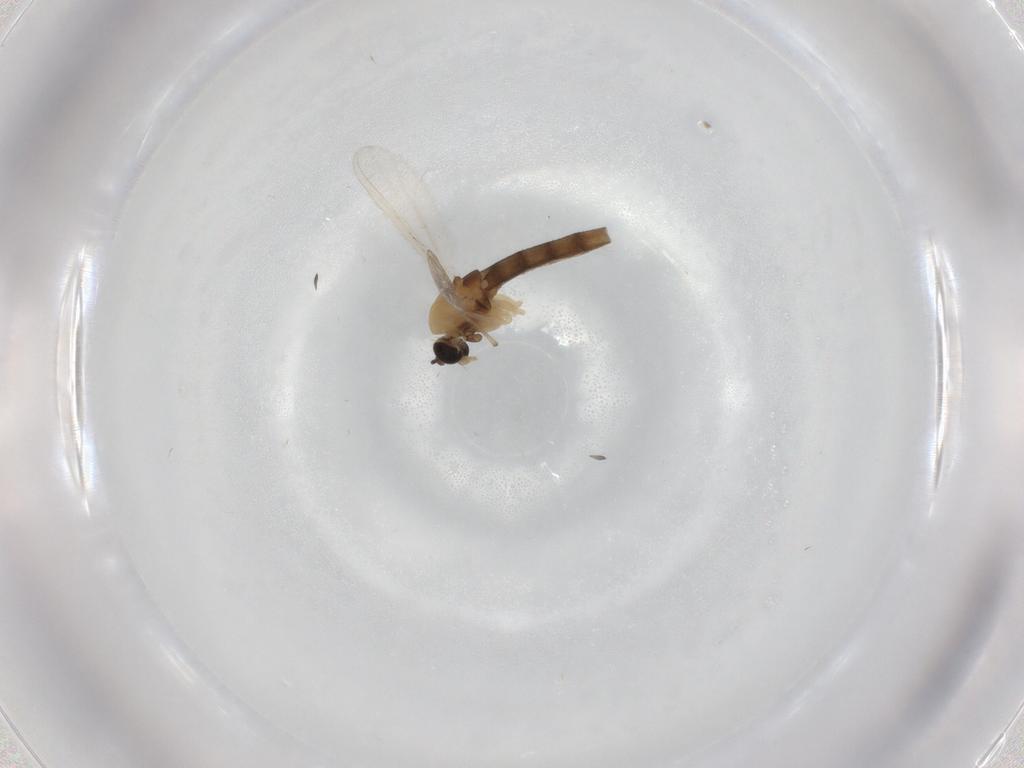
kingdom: Animalia
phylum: Arthropoda
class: Insecta
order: Diptera
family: Chironomidae
